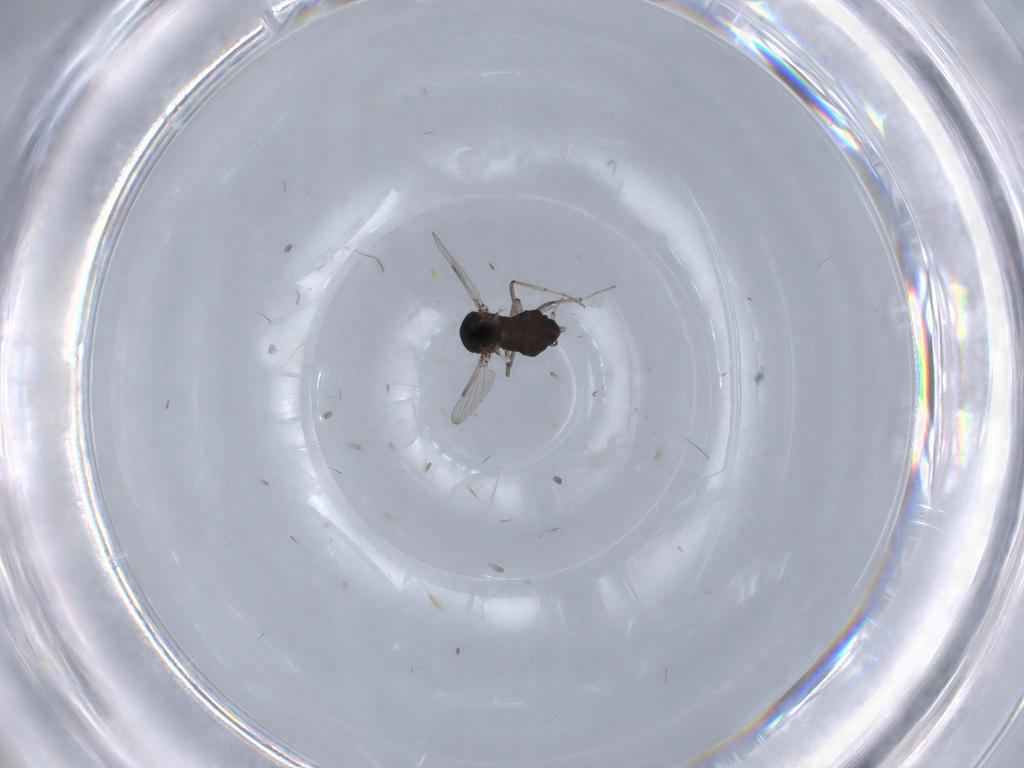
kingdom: Animalia
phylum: Arthropoda
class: Insecta
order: Diptera
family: Ceratopogonidae
